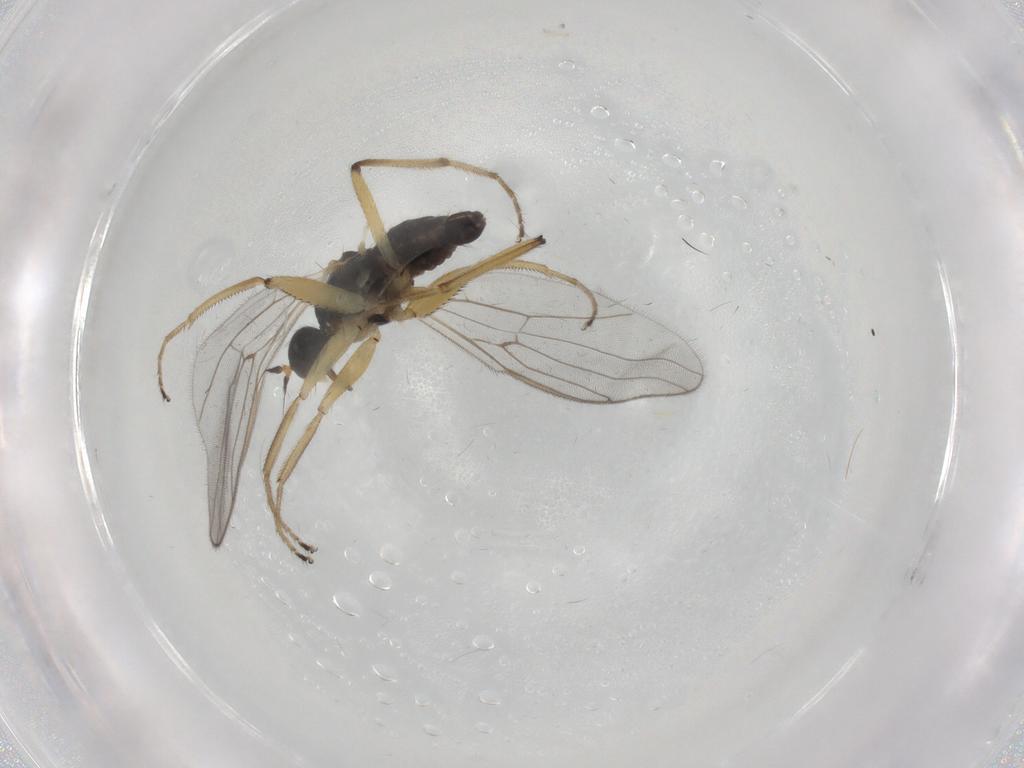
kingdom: Animalia
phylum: Arthropoda
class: Insecta
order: Diptera
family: Hybotidae
